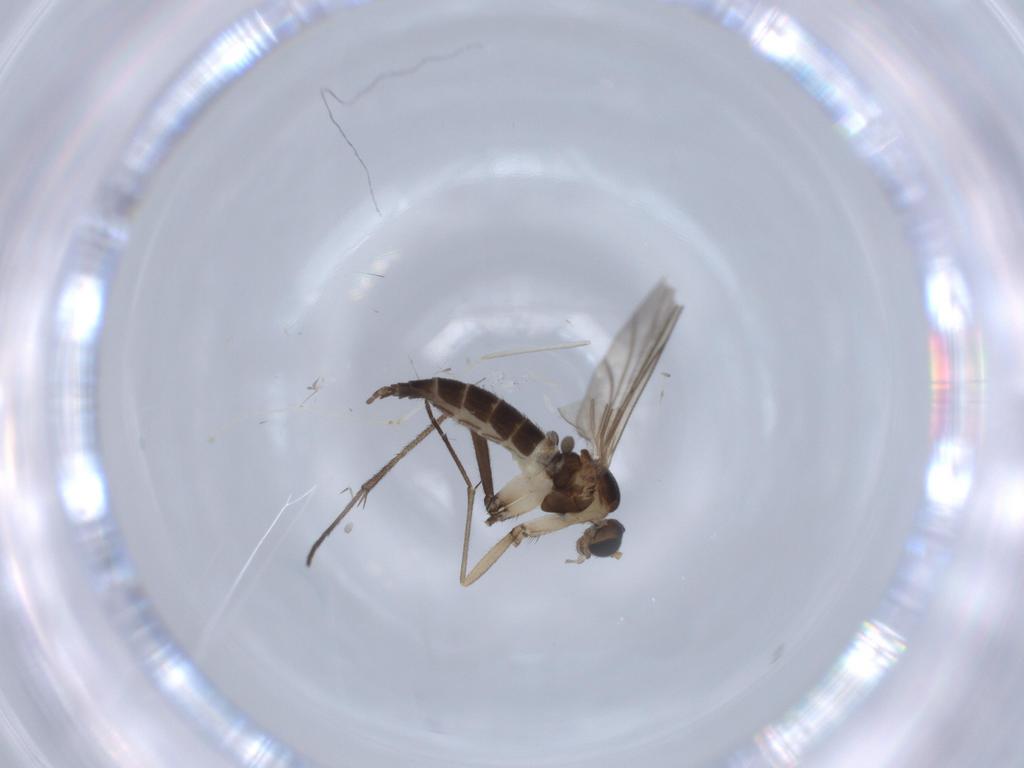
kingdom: Animalia
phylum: Arthropoda
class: Insecta
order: Diptera
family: Sciaridae
